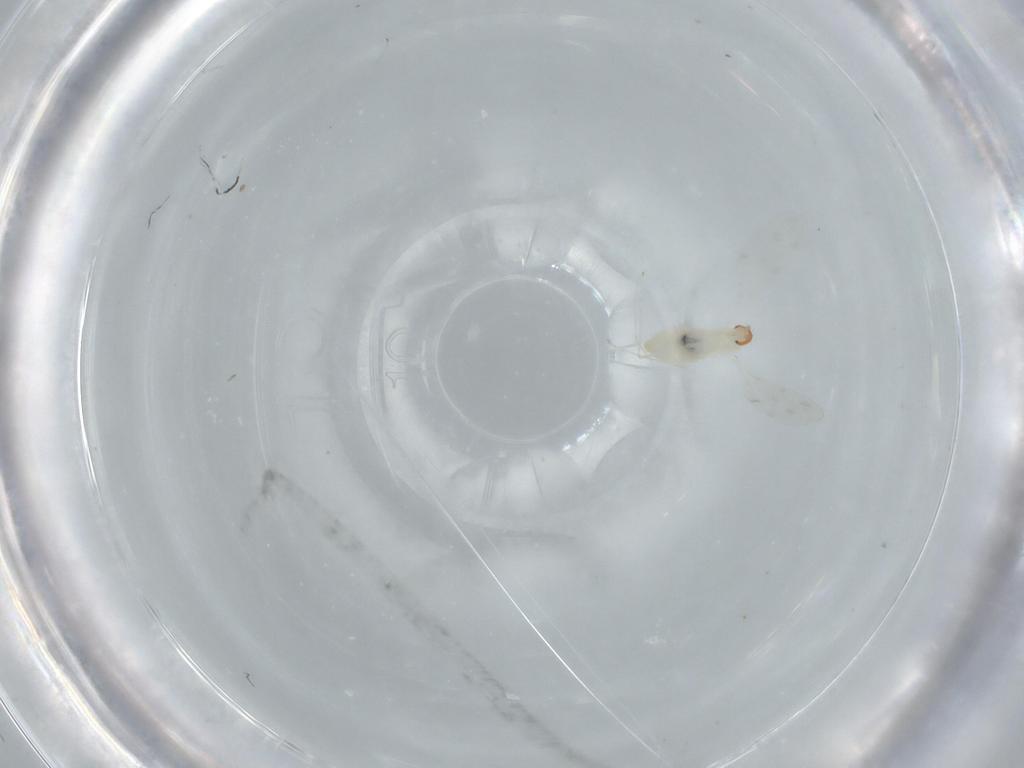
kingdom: Animalia
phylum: Arthropoda
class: Insecta
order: Diptera
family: Cecidomyiidae
